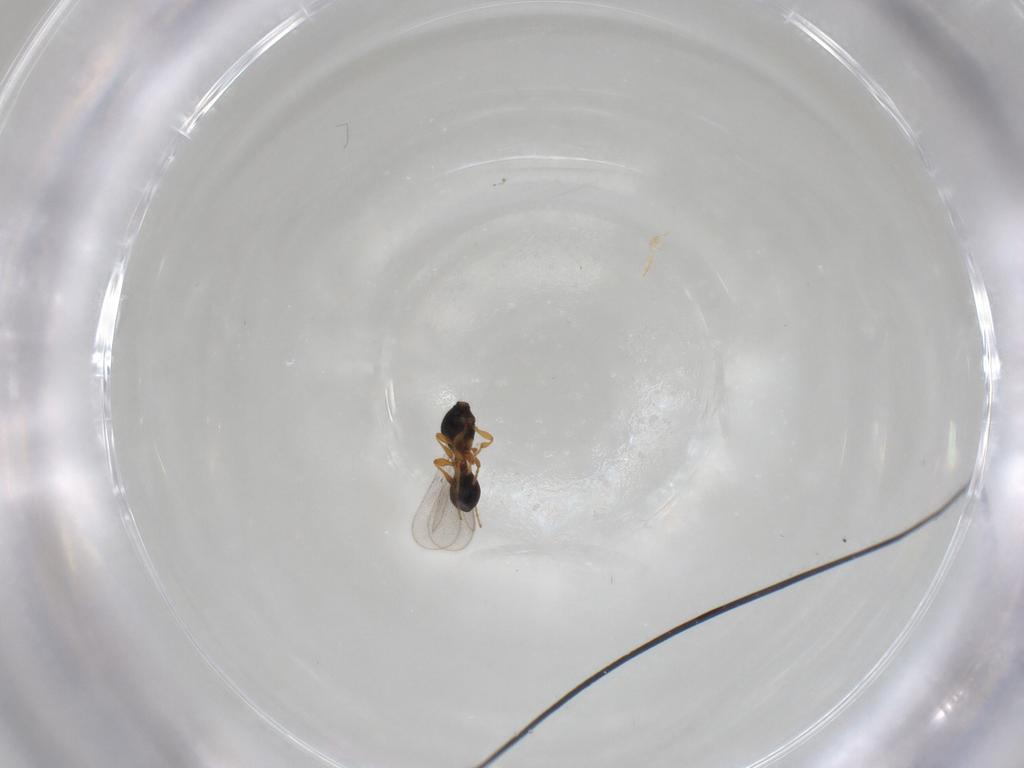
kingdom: Animalia
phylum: Arthropoda
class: Insecta
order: Hymenoptera
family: Platygastridae
